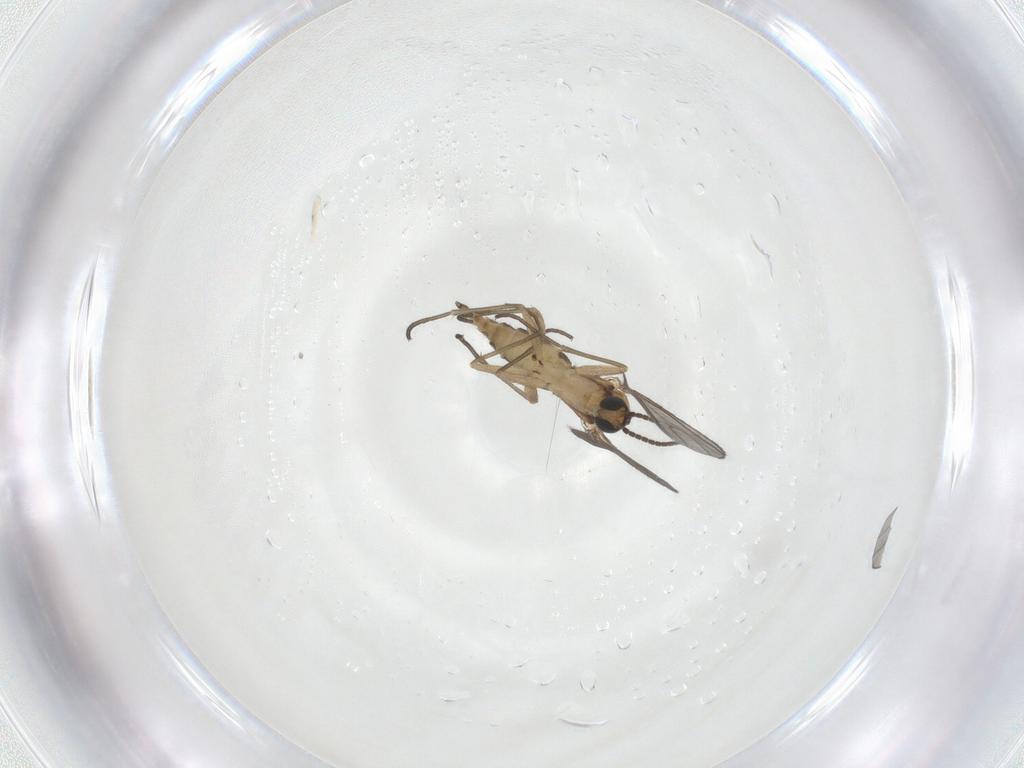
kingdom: Animalia
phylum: Arthropoda
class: Insecta
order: Diptera
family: Sciaridae
